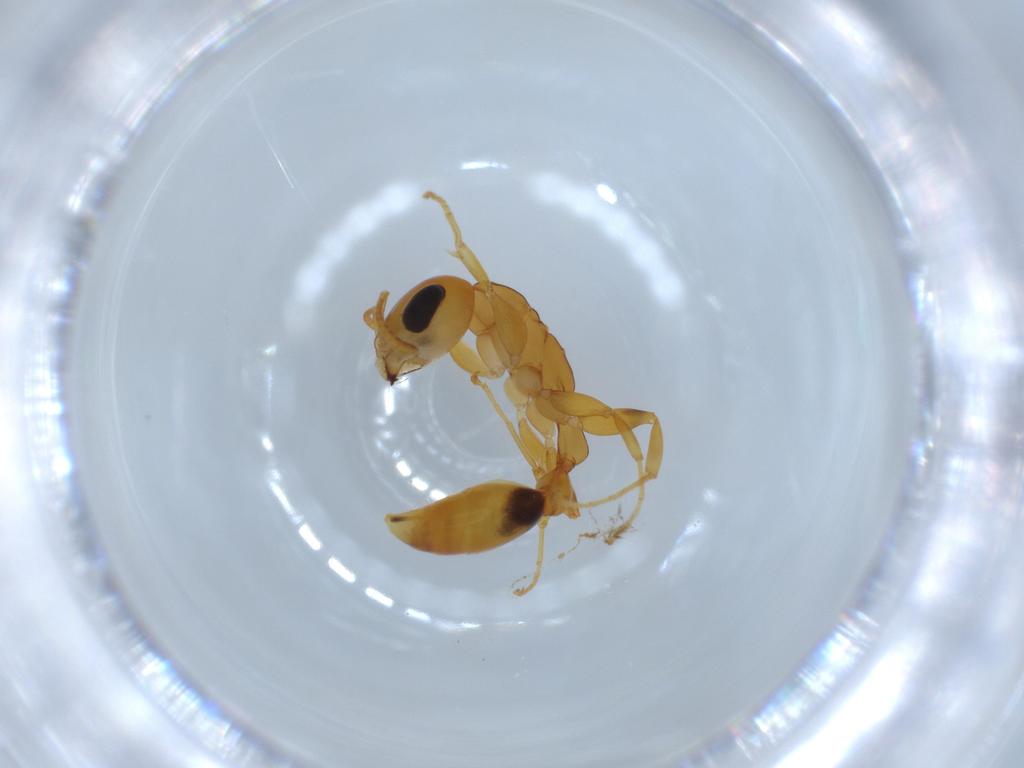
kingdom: Animalia
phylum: Arthropoda
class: Insecta
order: Hymenoptera
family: Formicidae
